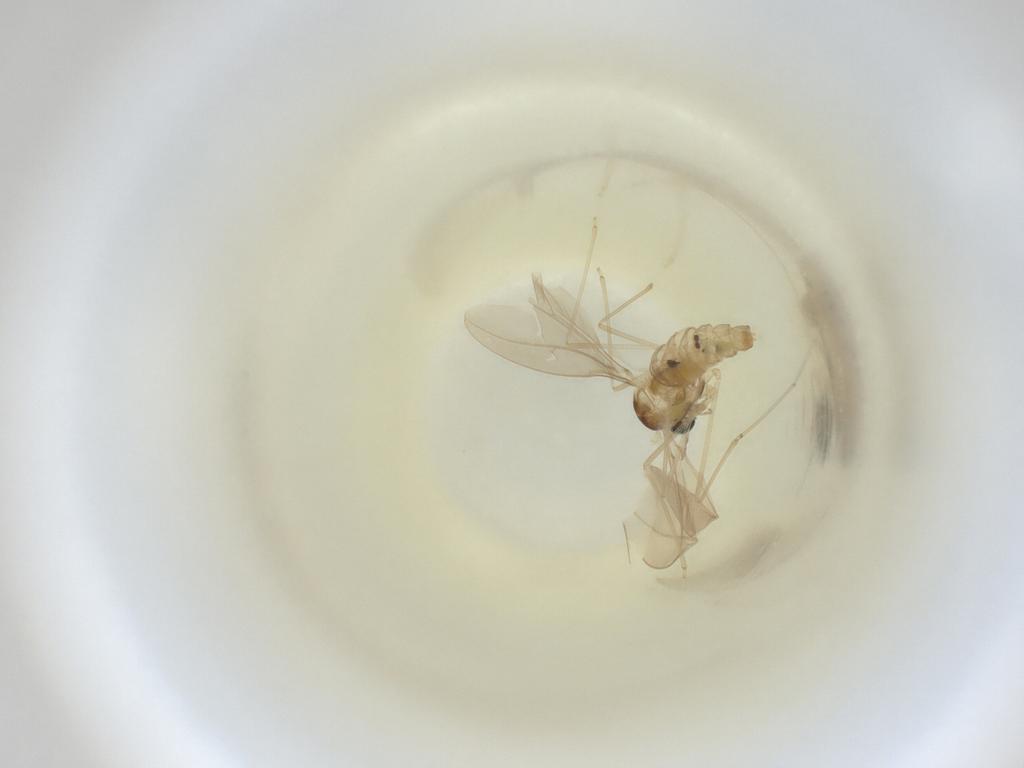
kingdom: Animalia
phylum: Arthropoda
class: Insecta
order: Diptera
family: Cecidomyiidae
